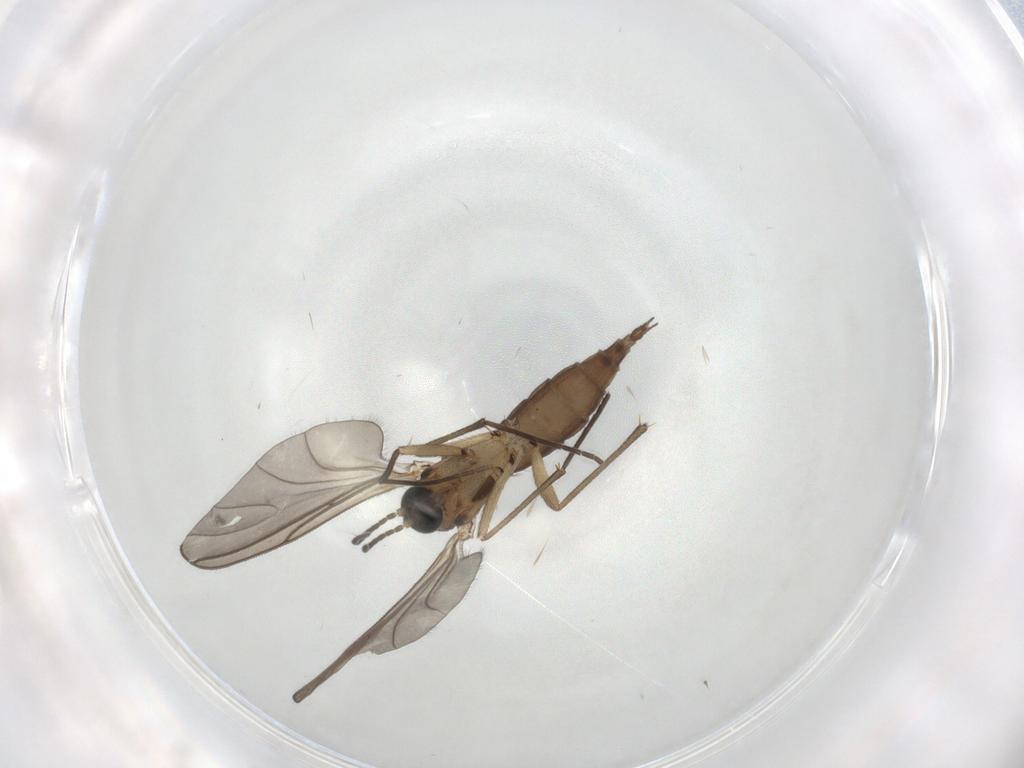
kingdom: Animalia
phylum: Arthropoda
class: Insecta
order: Diptera
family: Sciaridae
